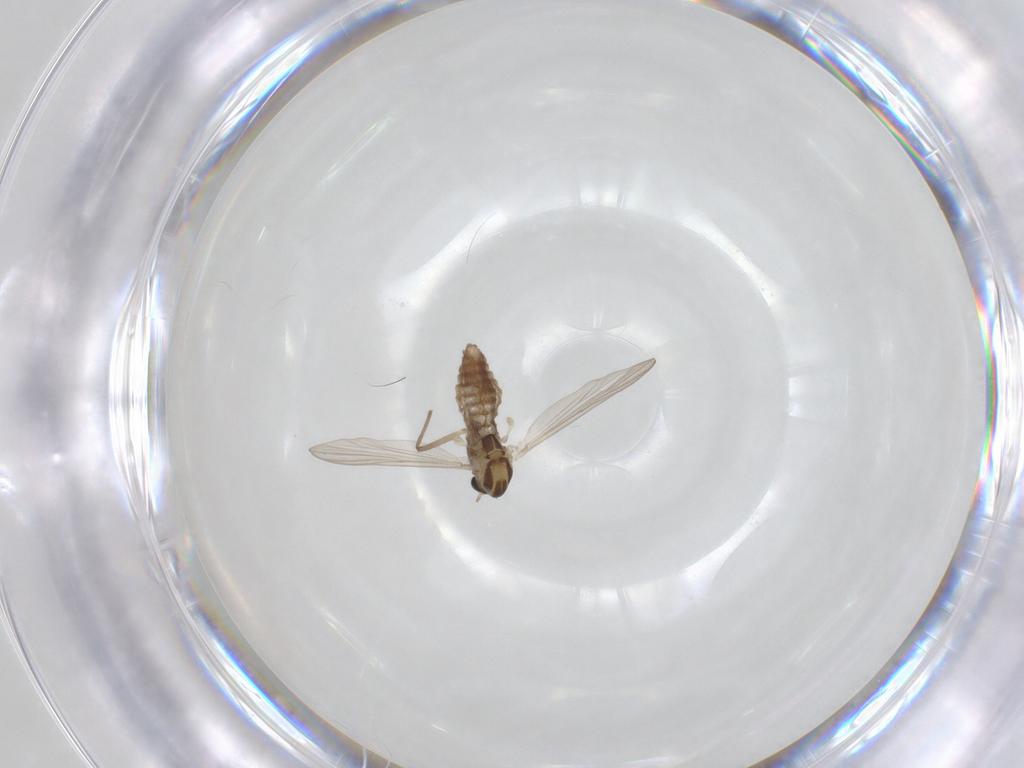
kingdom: Animalia
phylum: Arthropoda
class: Insecta
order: Diptera
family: Chironomidae
